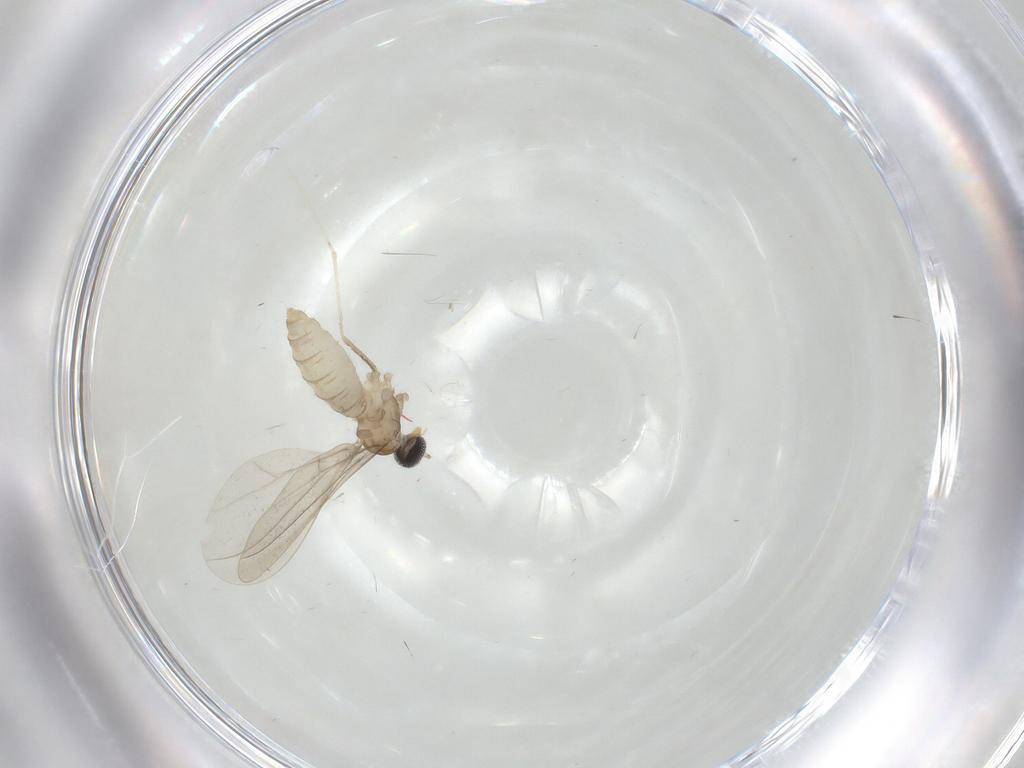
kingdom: Animalia
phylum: Arthropoda
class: Insecta
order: Diptera
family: Cecidomyiidae
